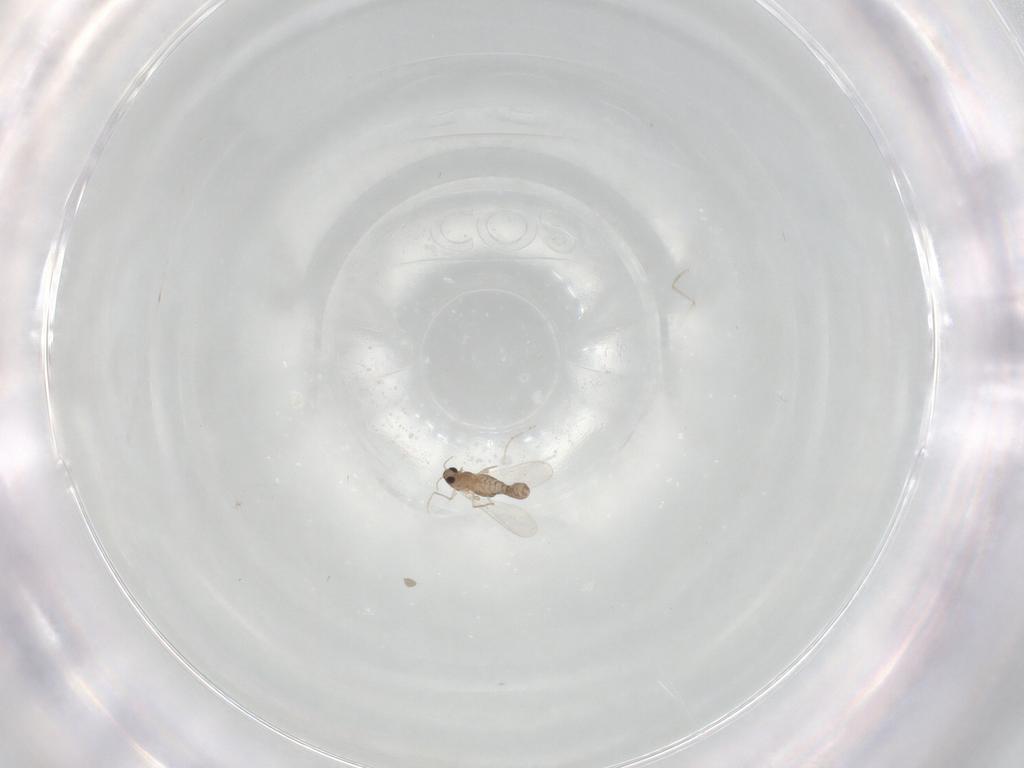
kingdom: Animalia
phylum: Arthropoda
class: Insecta
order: Diptera
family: Chironomidae
